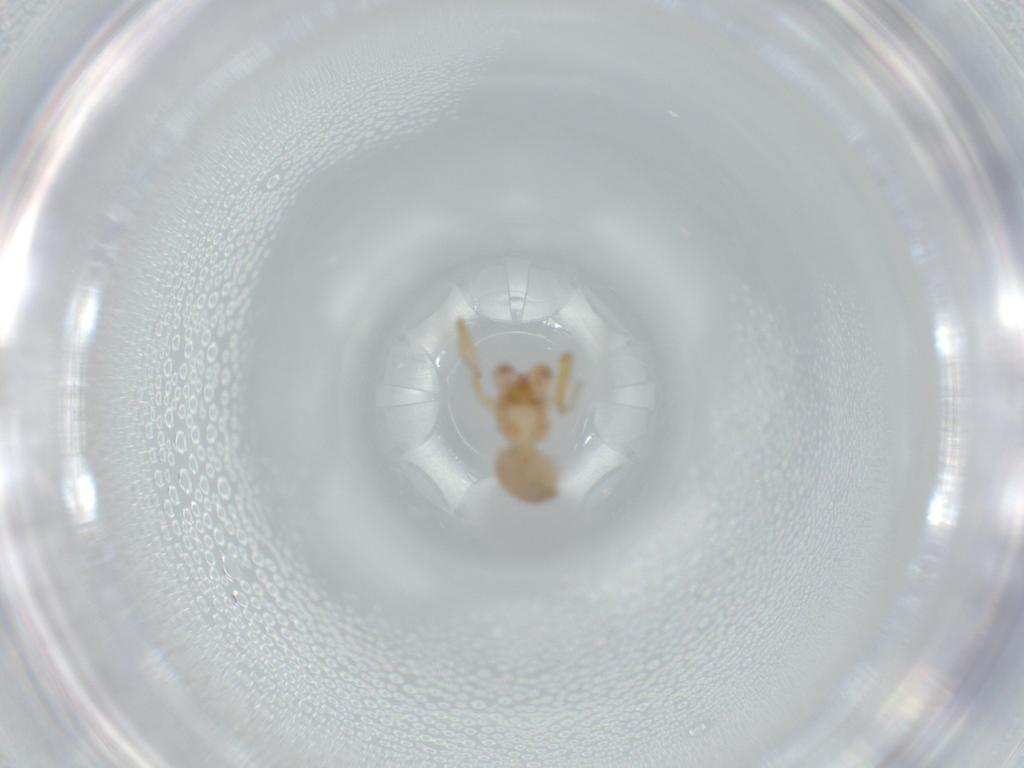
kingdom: Animalia
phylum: Arthropoda
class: Arachnida
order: Araneae
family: Oonopidae
